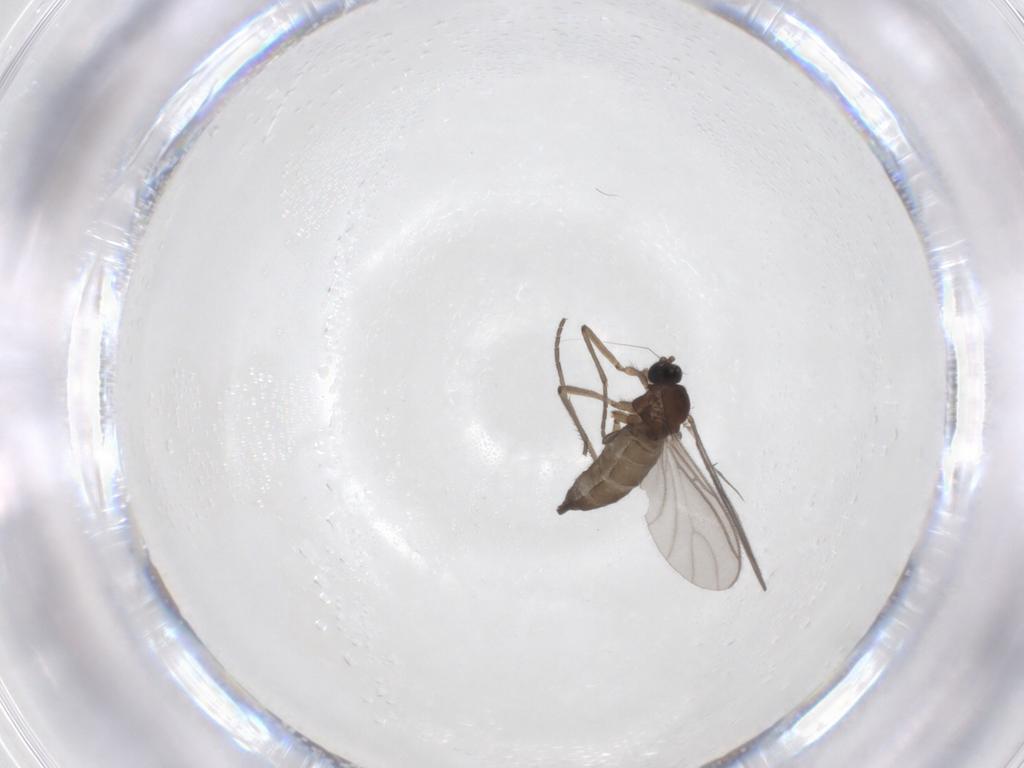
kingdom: Animalia
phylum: Arthropoda
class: Insecta
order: Diptera
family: Sciaridae
